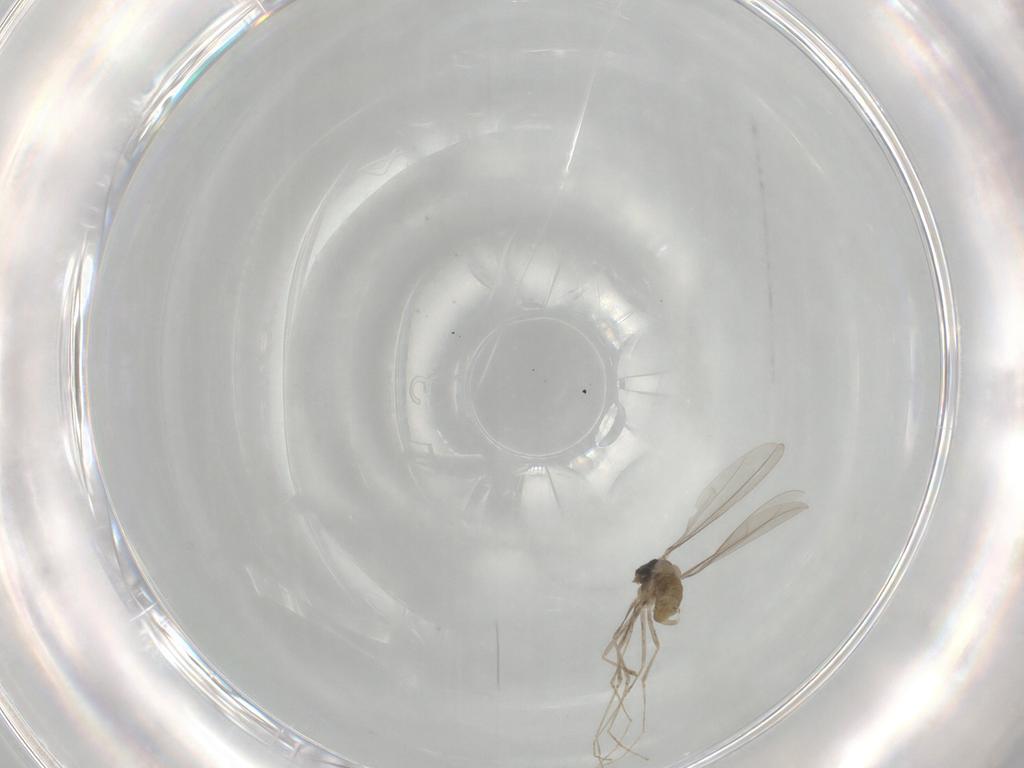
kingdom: Animalia
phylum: Arthropoda
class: Insecta
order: Diptera
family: Cecidomyiidae
